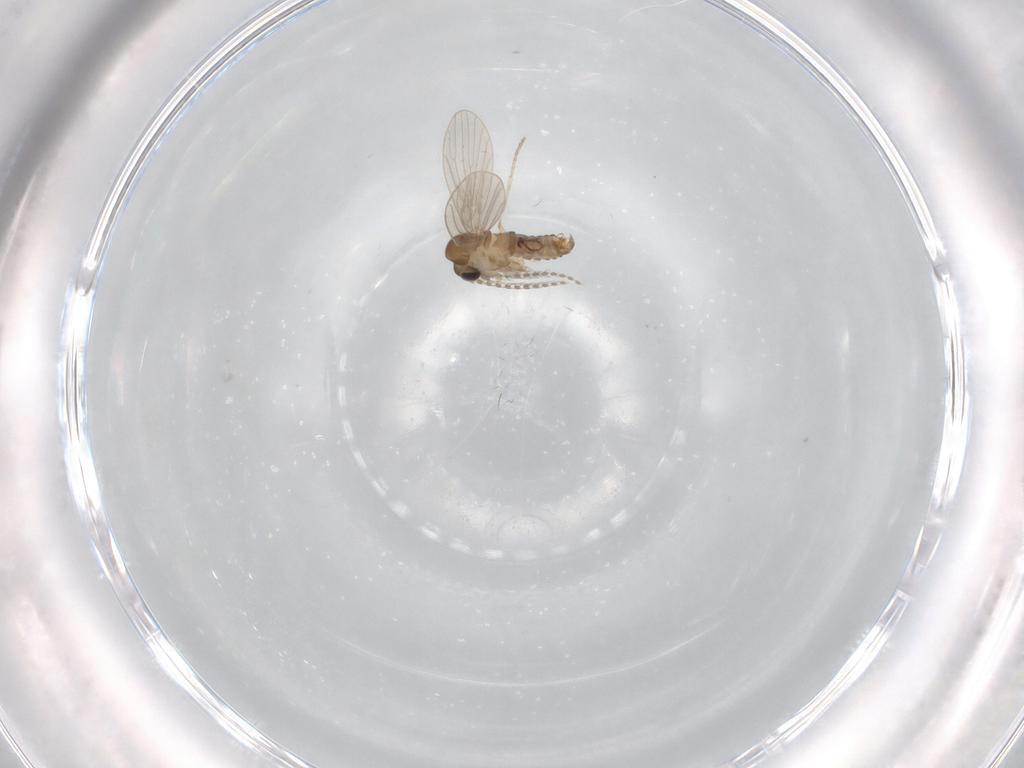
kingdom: Animalia
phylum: Arthropoda
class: Insecta
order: Diptera
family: Psychodidae
